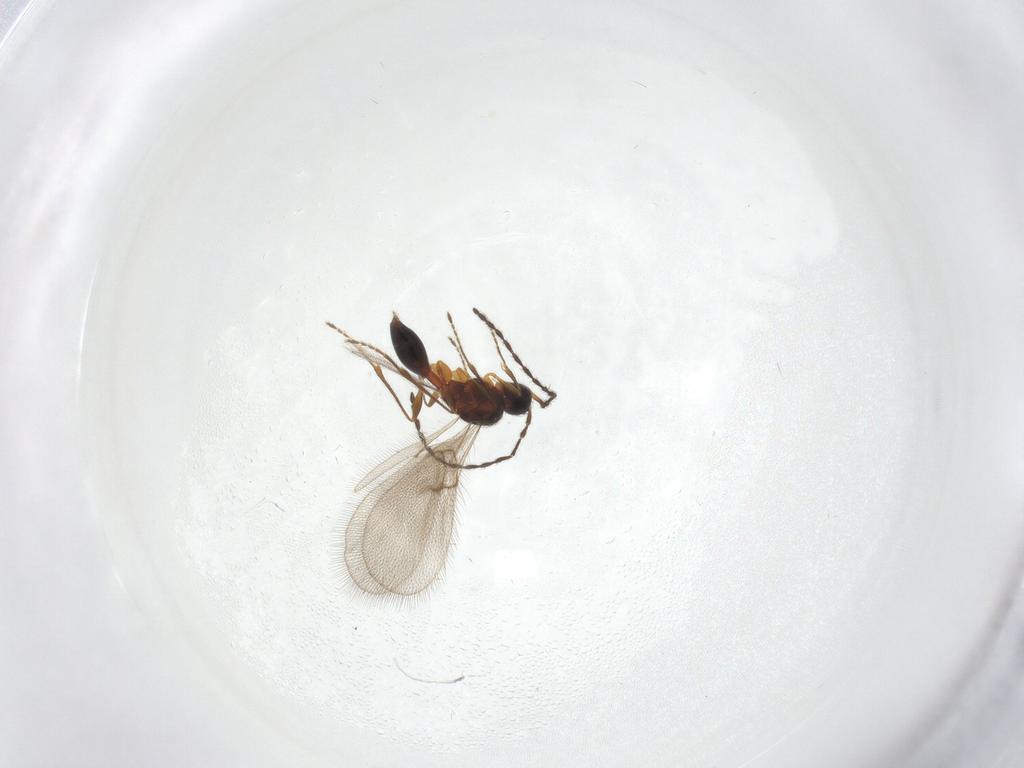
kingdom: Animalia
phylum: Arthropoda
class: Insecta
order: Hymenoptera
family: Diapriidae
